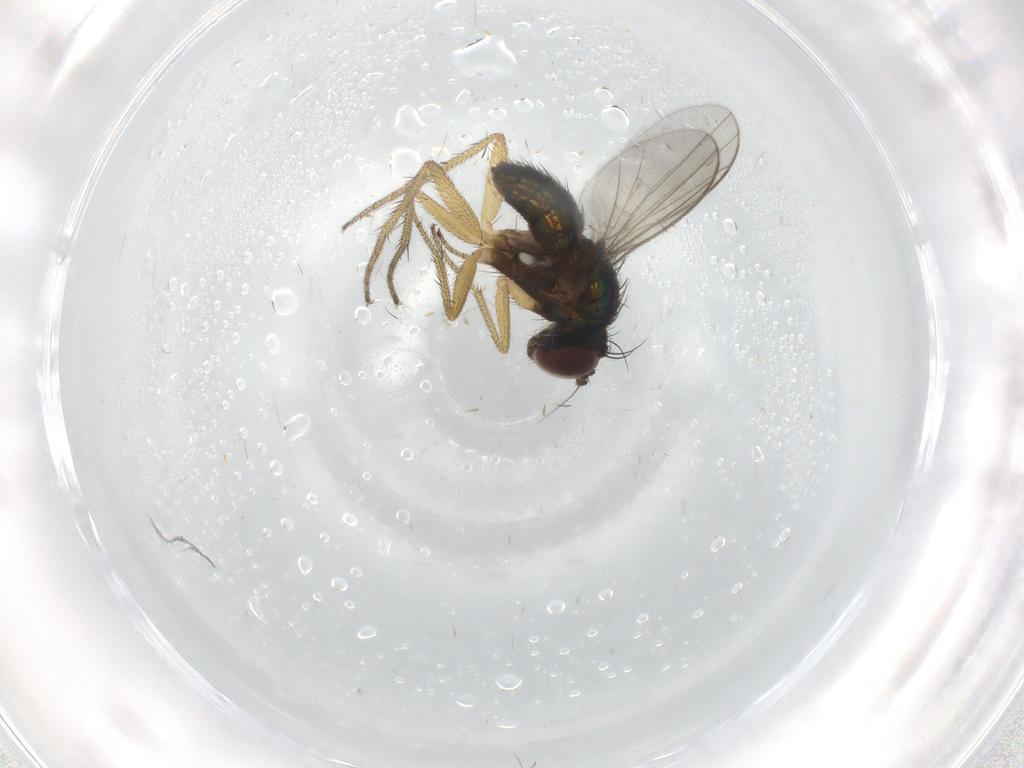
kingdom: Animalia
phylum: Arthropoda
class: Insecta
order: Diptera
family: Dolichopodidae
